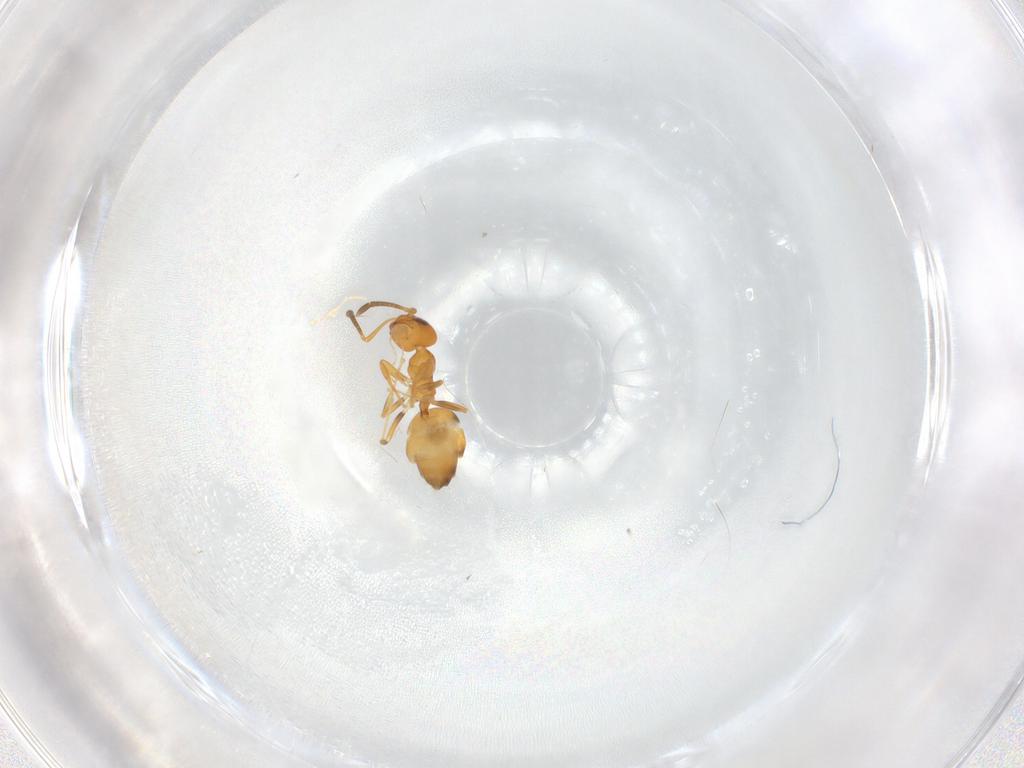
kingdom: Animalia
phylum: Arthropoda
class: Insecta
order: Hymenoptera
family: Formicidae
